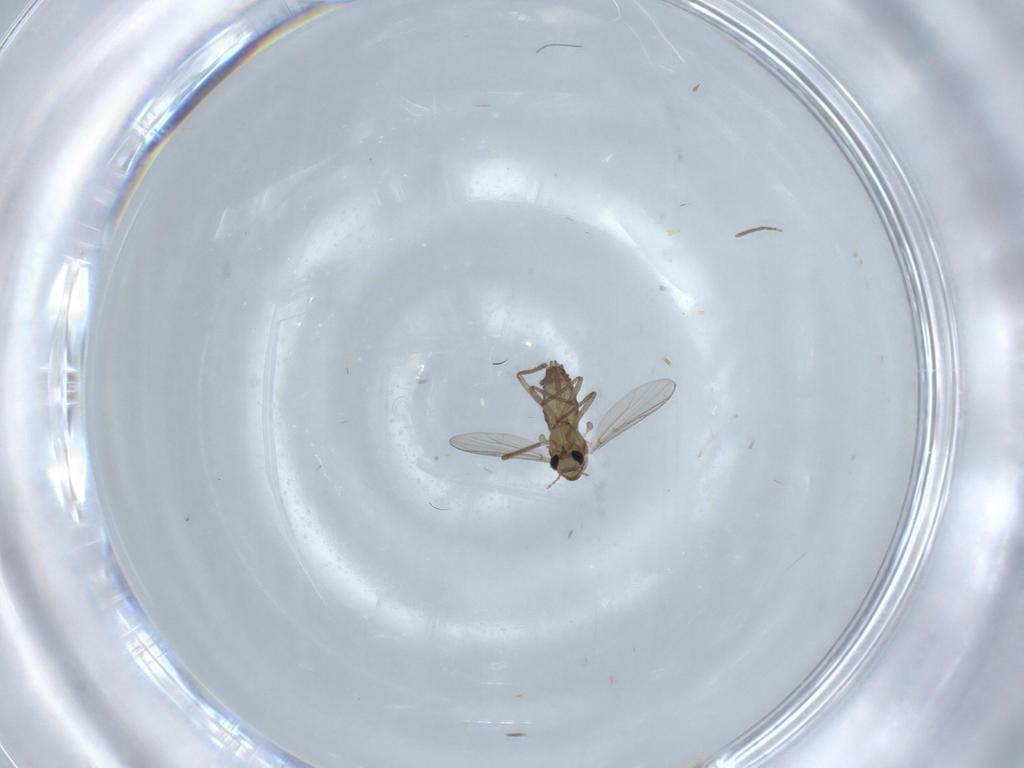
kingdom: Animalia
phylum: Arthropoda
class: Insecta
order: Diptera
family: Chironomidae
